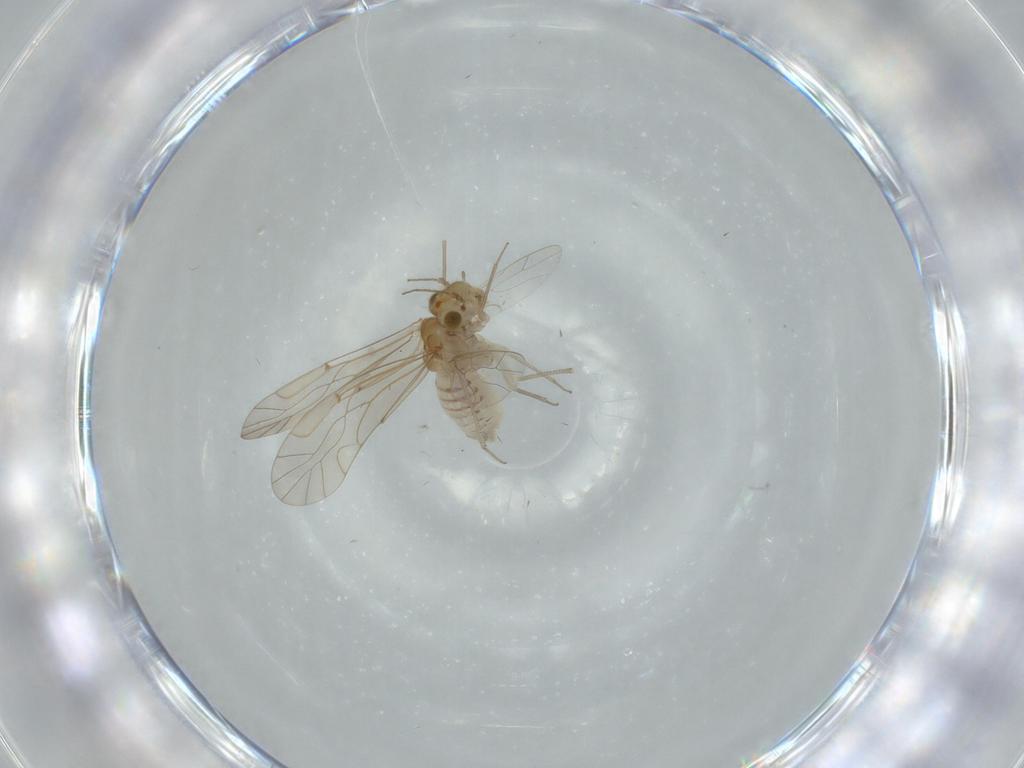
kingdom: Animalia
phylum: Arthropoda
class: Insecta
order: Psocodea
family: Lachesillidae
